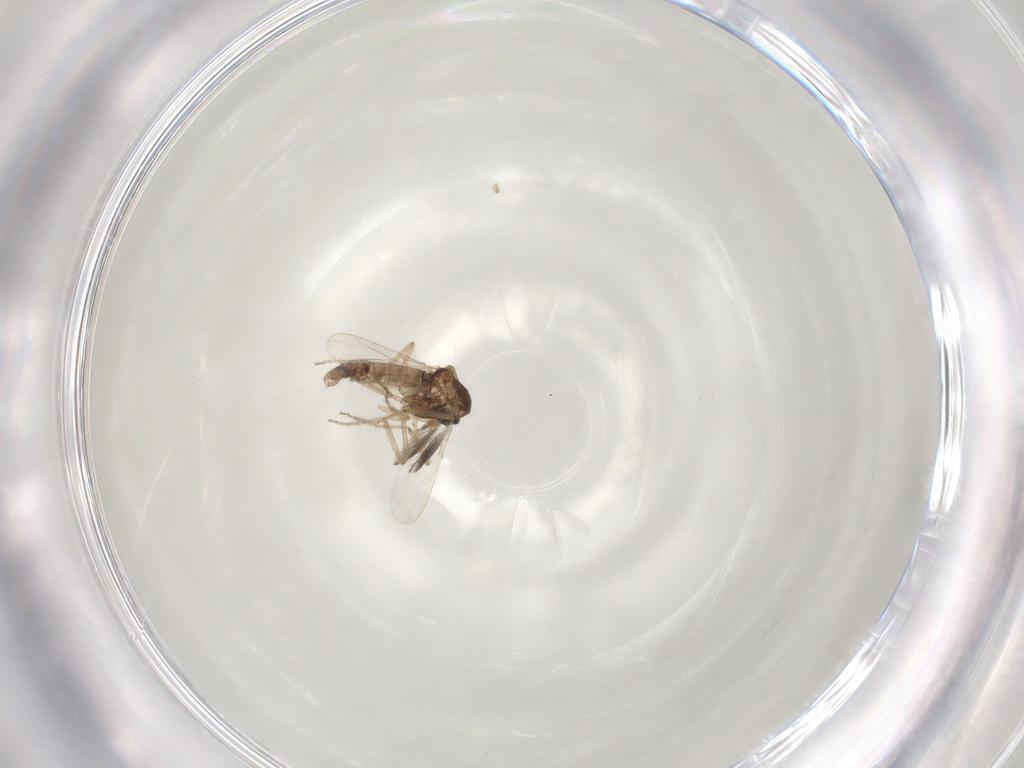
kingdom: Animalia
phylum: Arthropoda
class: Insecta
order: Diptera
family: Ceratopogonidae
